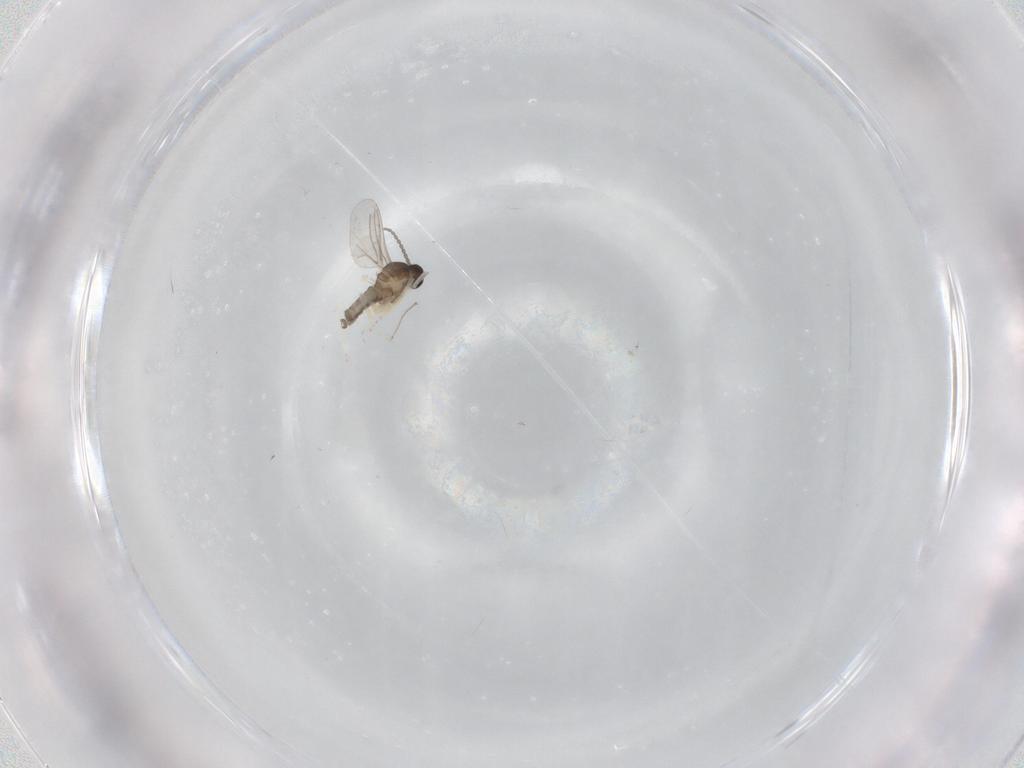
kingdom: Animalia
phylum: Arthropoda
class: Insecta
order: Diptera
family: Cecidomyiidae
